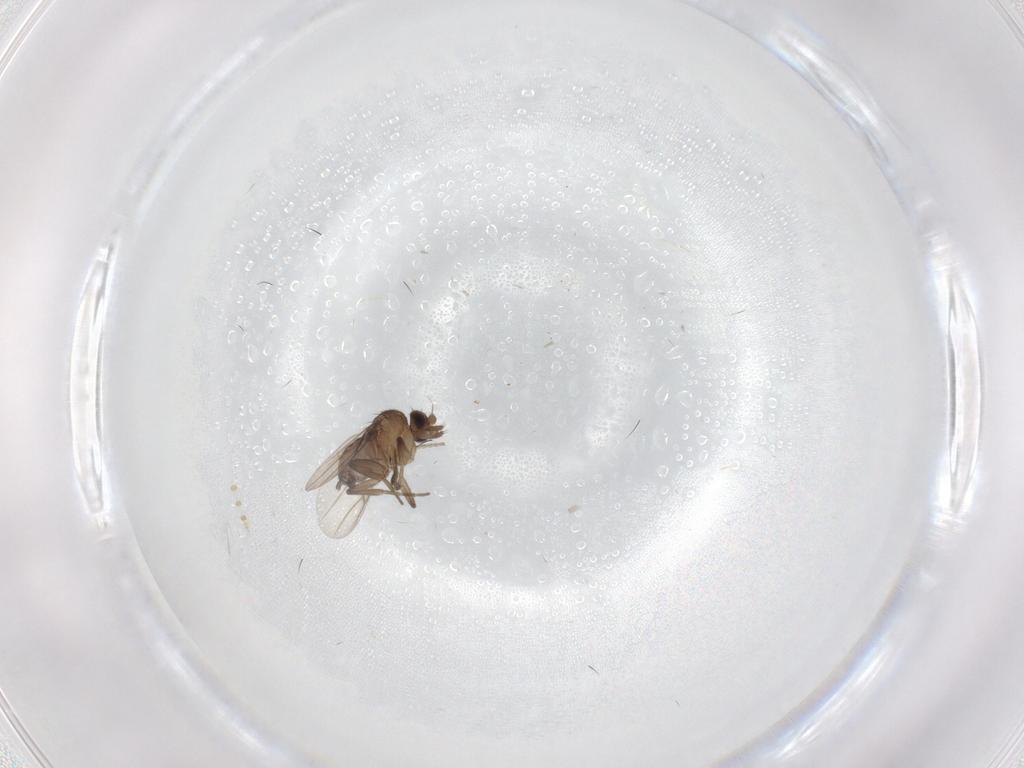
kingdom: Animalia
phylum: Arthropoda
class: Insecta
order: Diptera
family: Psychodidae
